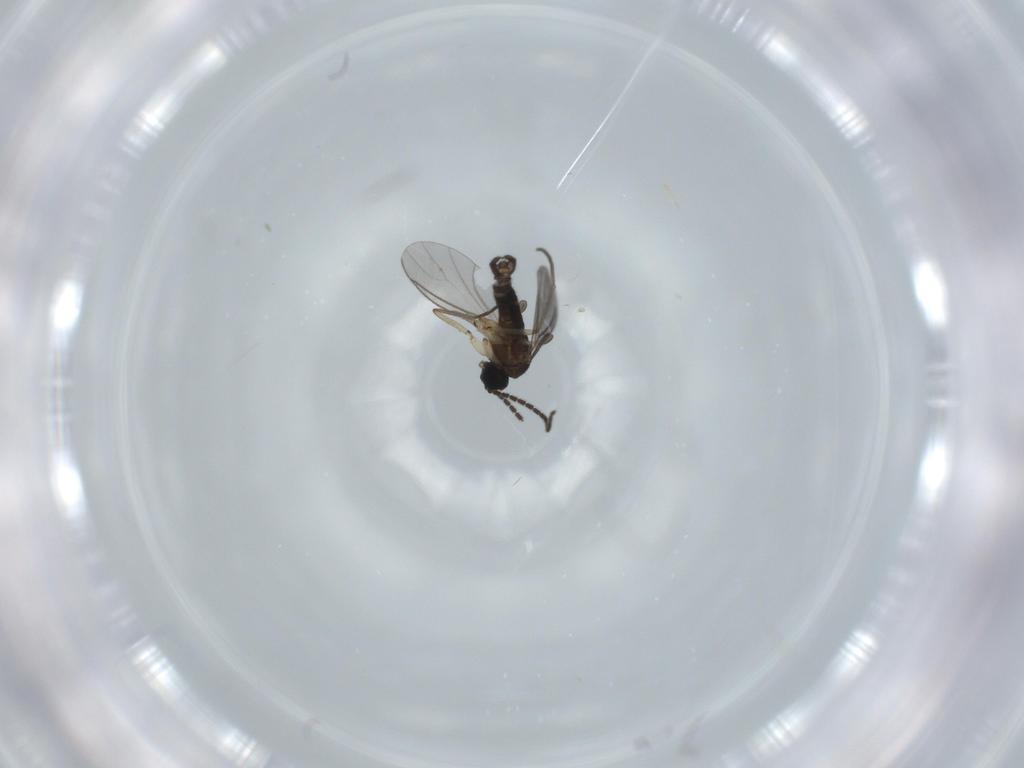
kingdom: Animalia
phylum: Arthropoda
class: Insecta
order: Diptera
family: Sciaridae
